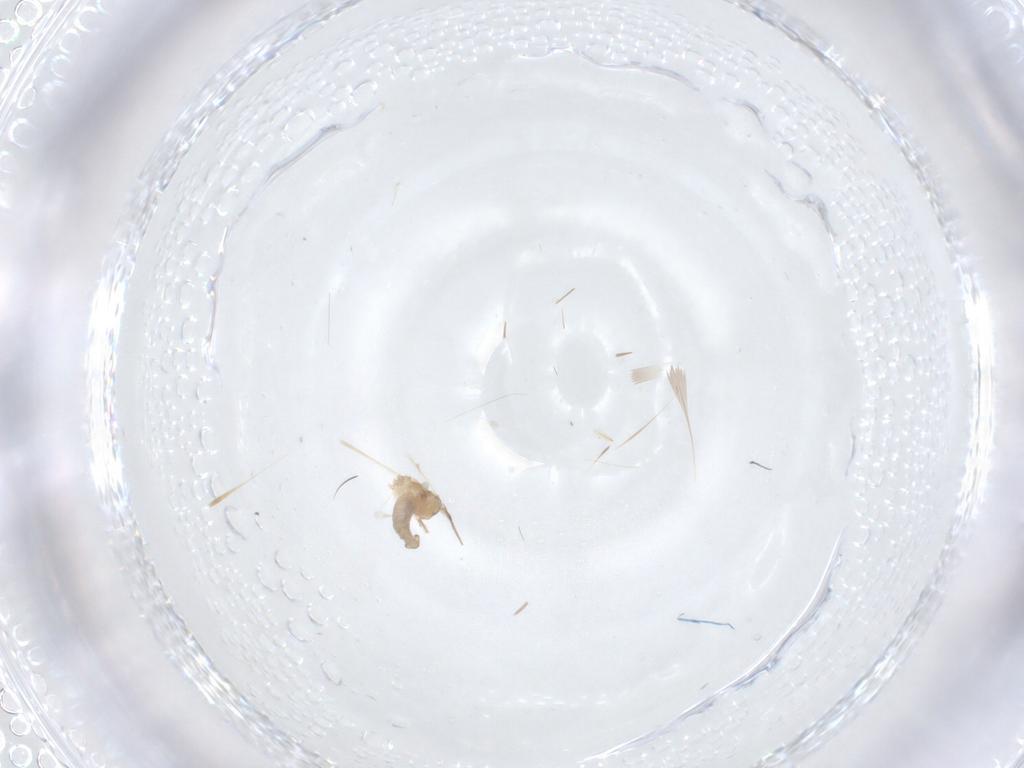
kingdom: Animalia
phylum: Arthropoda
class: Insecta
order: Diptera
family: Cecidomyiidae
